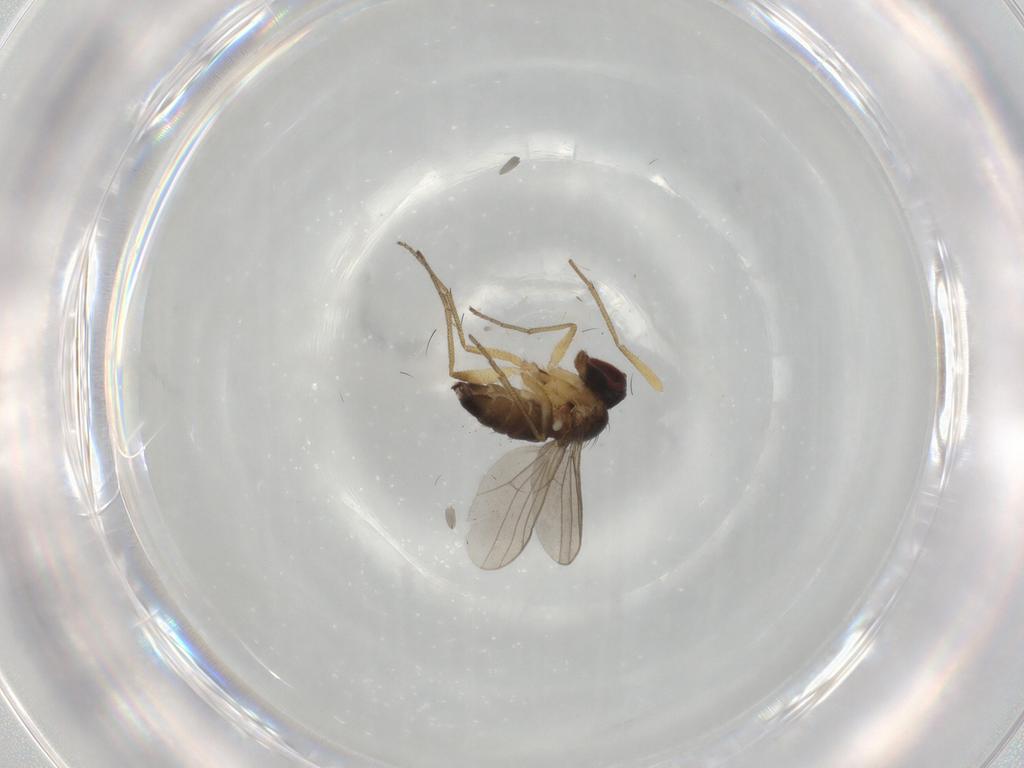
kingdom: Animalia
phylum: Arthropoda
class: Insecta
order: Diptera
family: Dolichopodidae
